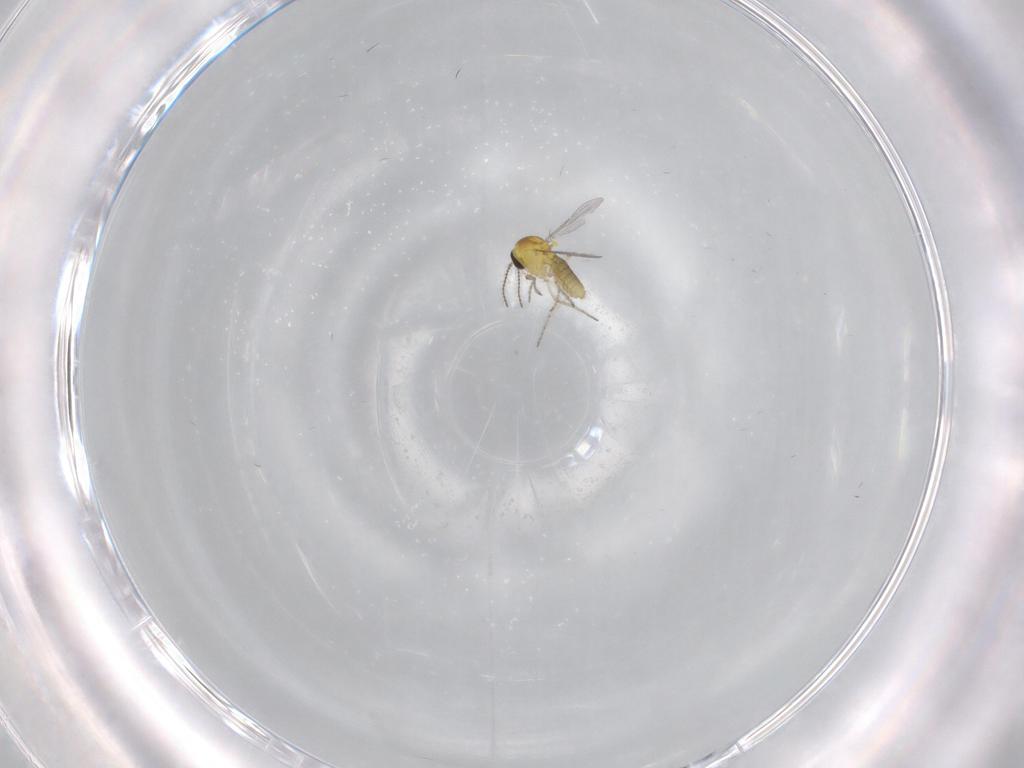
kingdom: Animalia
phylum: Arthropoda
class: Insecta
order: Diptera
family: Ceratopogonidae
